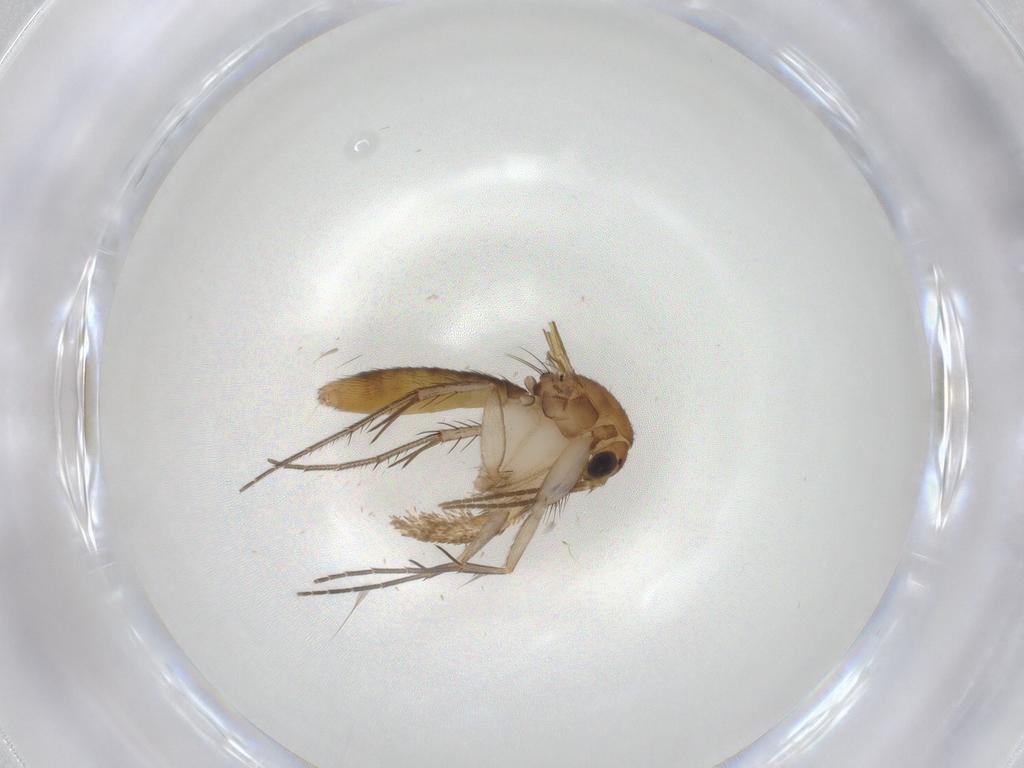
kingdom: Animalia
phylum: Arthropoda
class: Insecta
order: Diptera
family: Mycetophilidae
